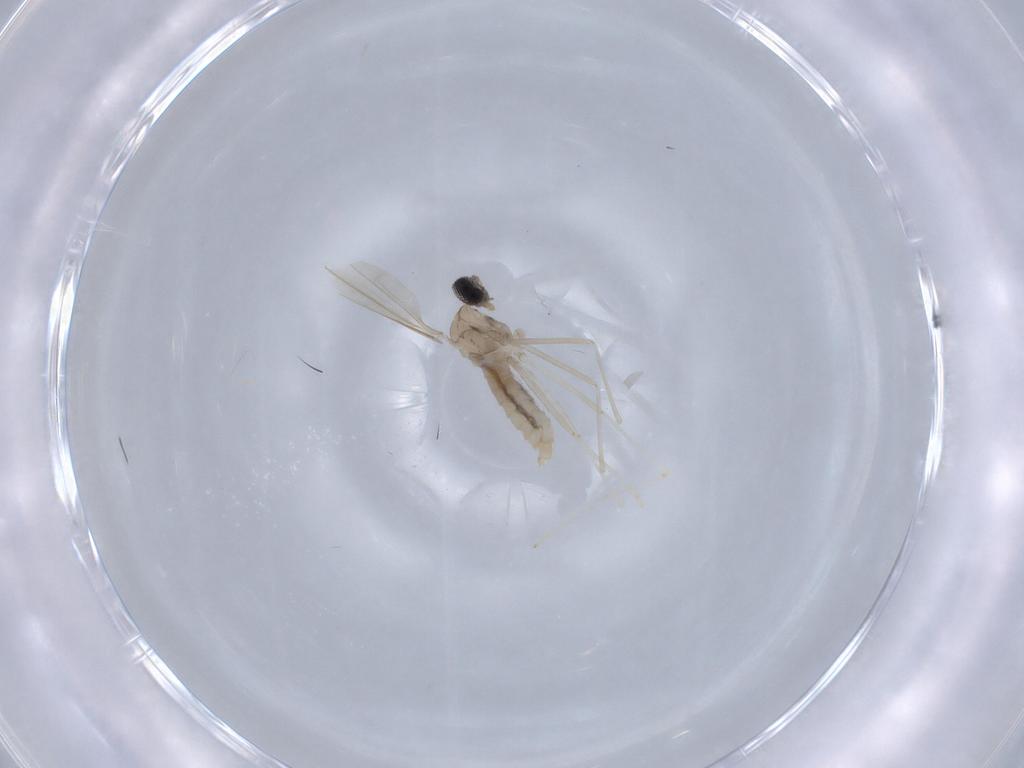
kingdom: Animalia
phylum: Arthropoda
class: Insecta
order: Diptera
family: Cecidomyiidae
